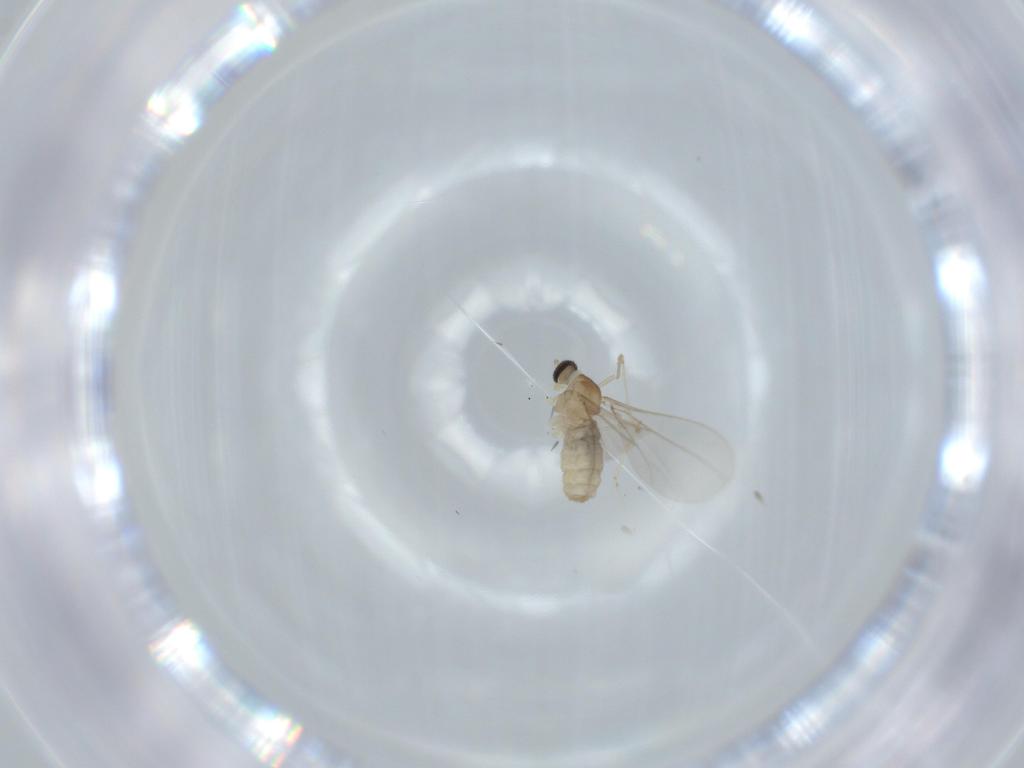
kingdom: Animalia
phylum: Arthropoda
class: Insecta
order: Diptera
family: Cecidomyiidae
